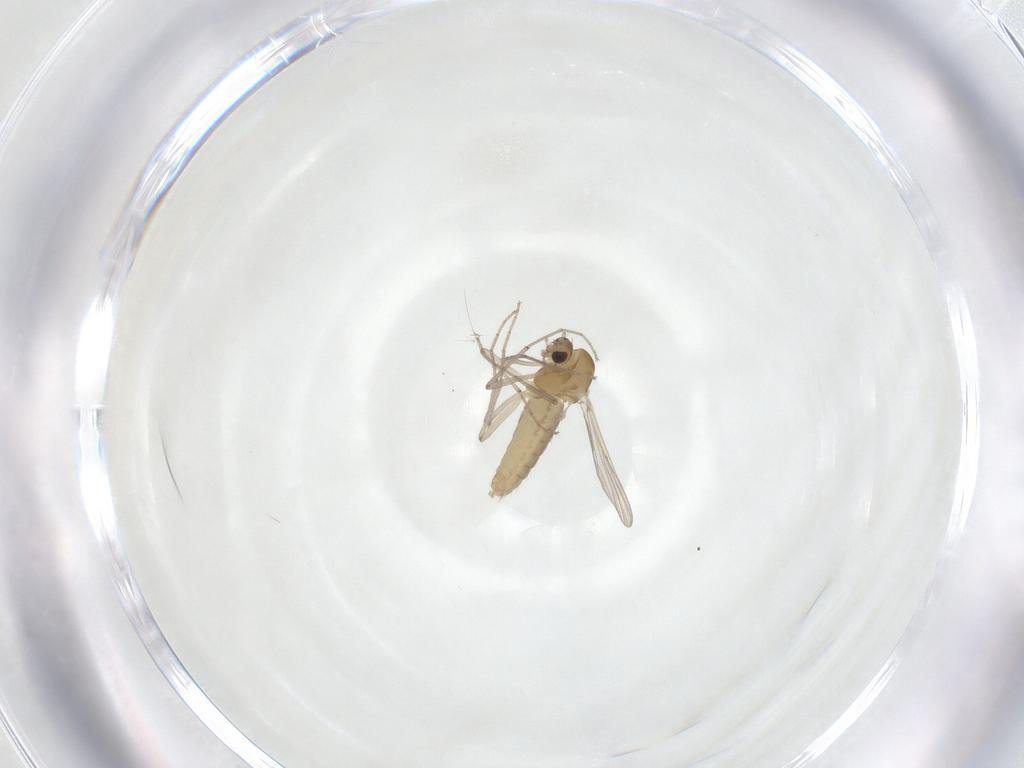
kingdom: Animalia
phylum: Arthropoda
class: Insecta
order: Diptera
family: Chironomidae
